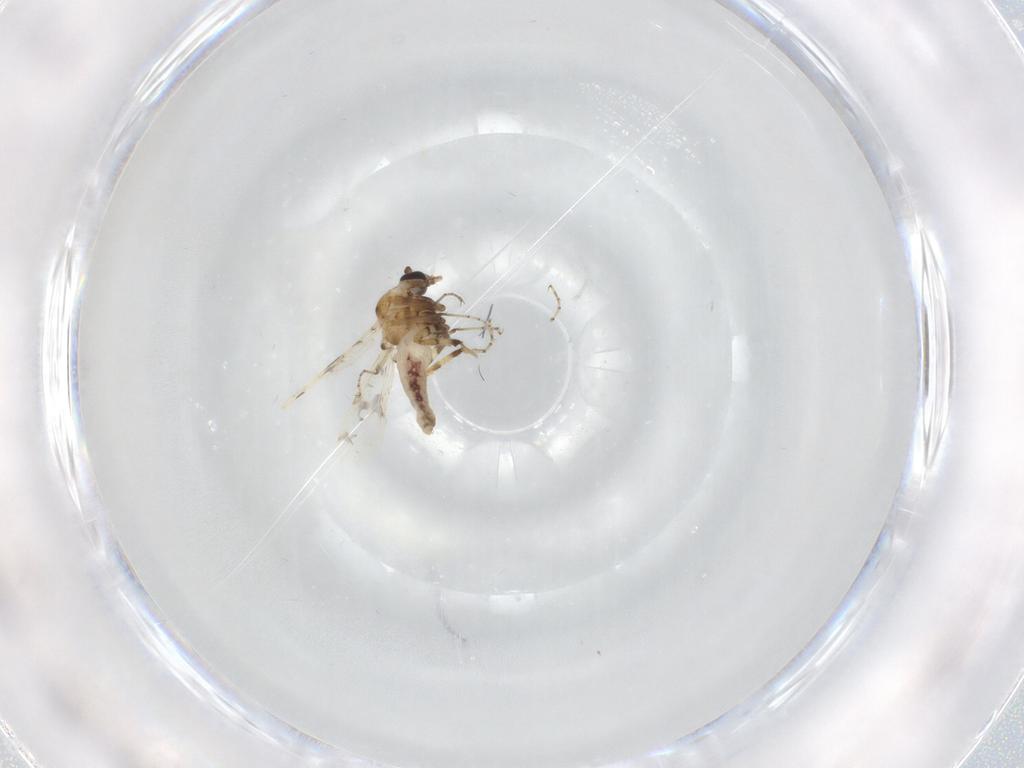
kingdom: Animalia
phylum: Arthropoda
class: Insecta
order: Diptera
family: Ceratopogonidae
